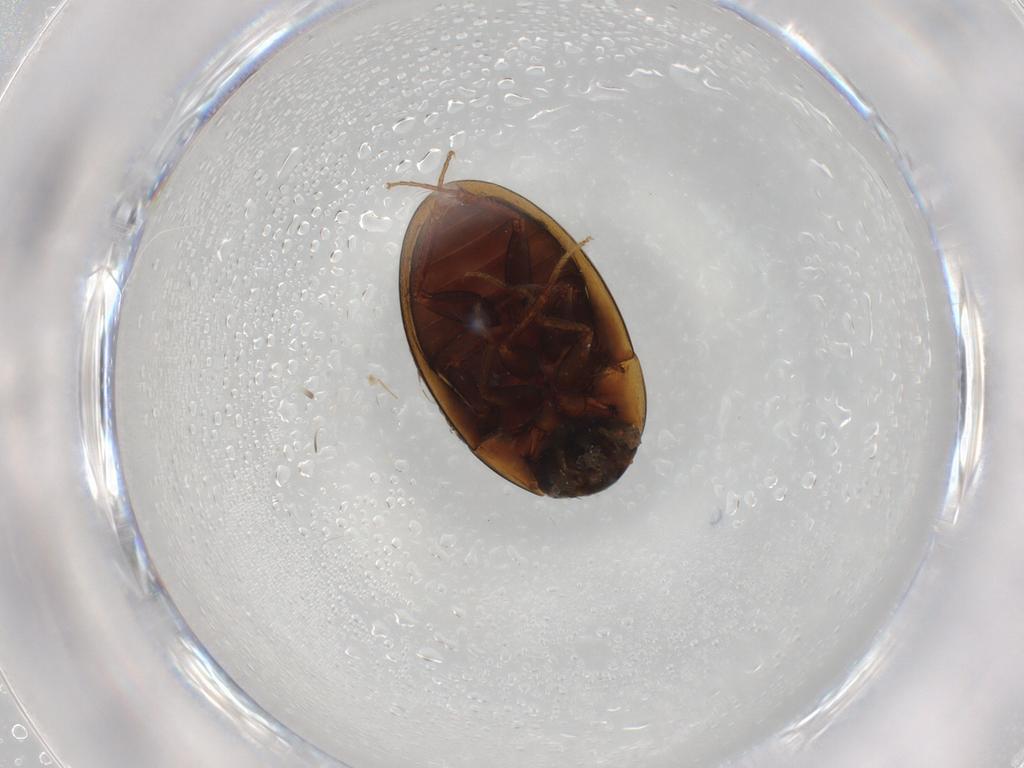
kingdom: Animalia
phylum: Arthropoda
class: Insecta
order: Coleoptera
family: Hydrophilidae
